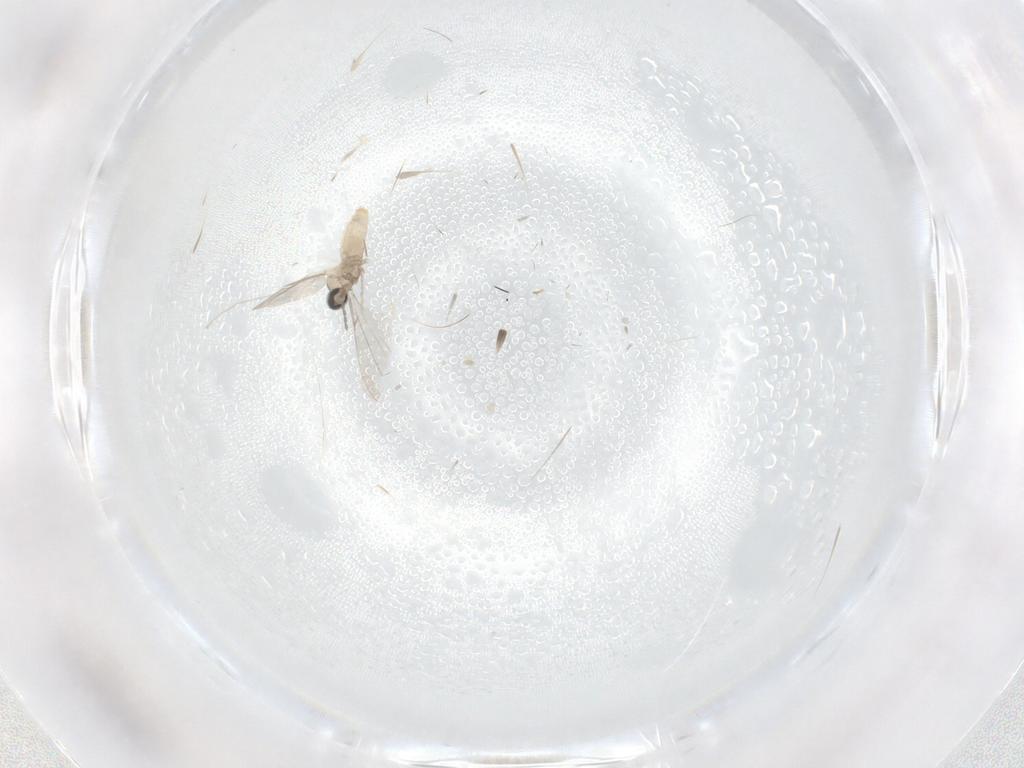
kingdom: Animalia
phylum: Arthropoda
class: Insecta
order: Diptera
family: Cecidomyiidae
